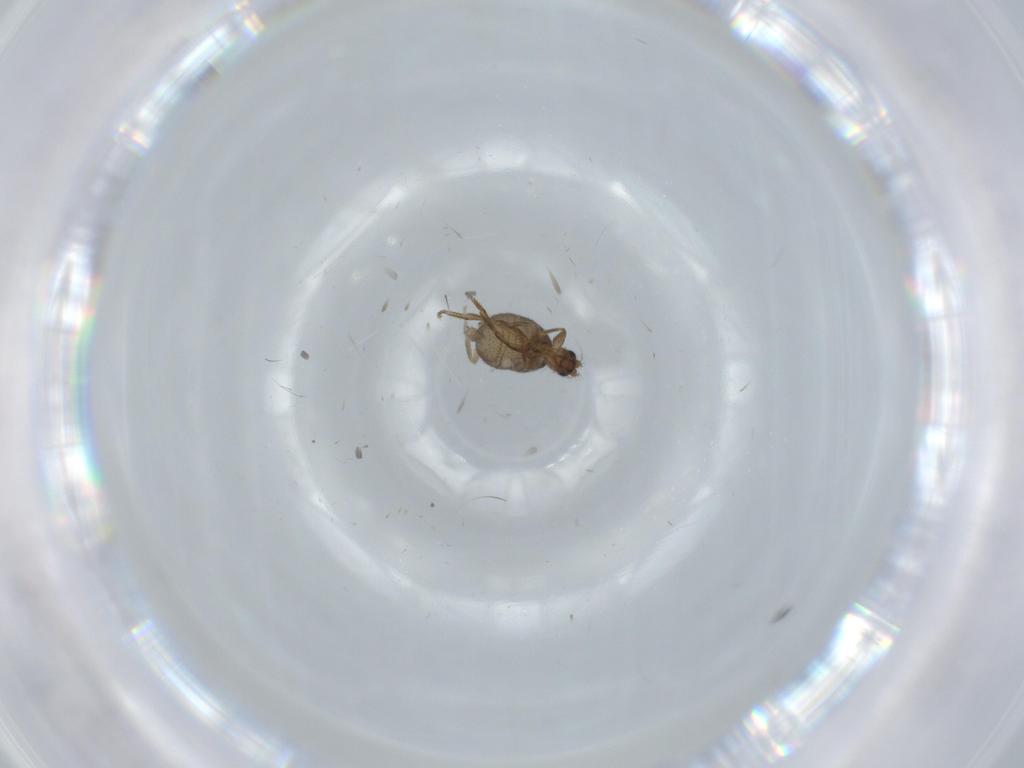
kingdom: Animalia
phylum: Arthropoda
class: Insecta
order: Diptera
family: Phoridae
